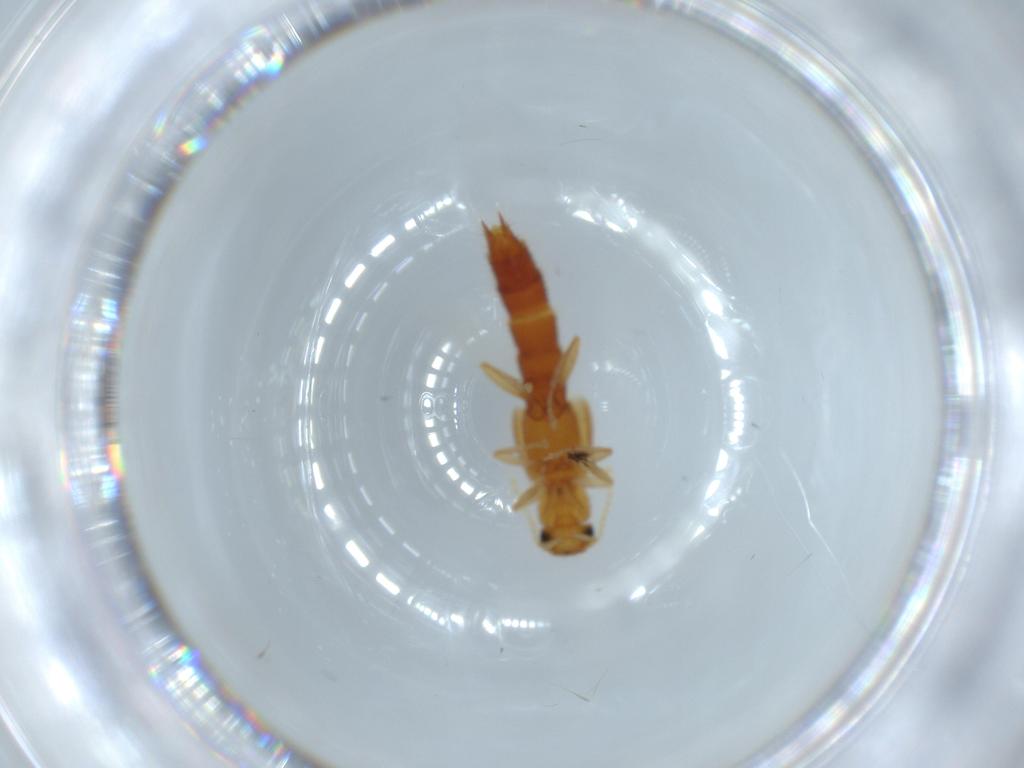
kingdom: Animalia
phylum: Arthropoda
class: Insecta
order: Coleoptera
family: Staphylinidae
